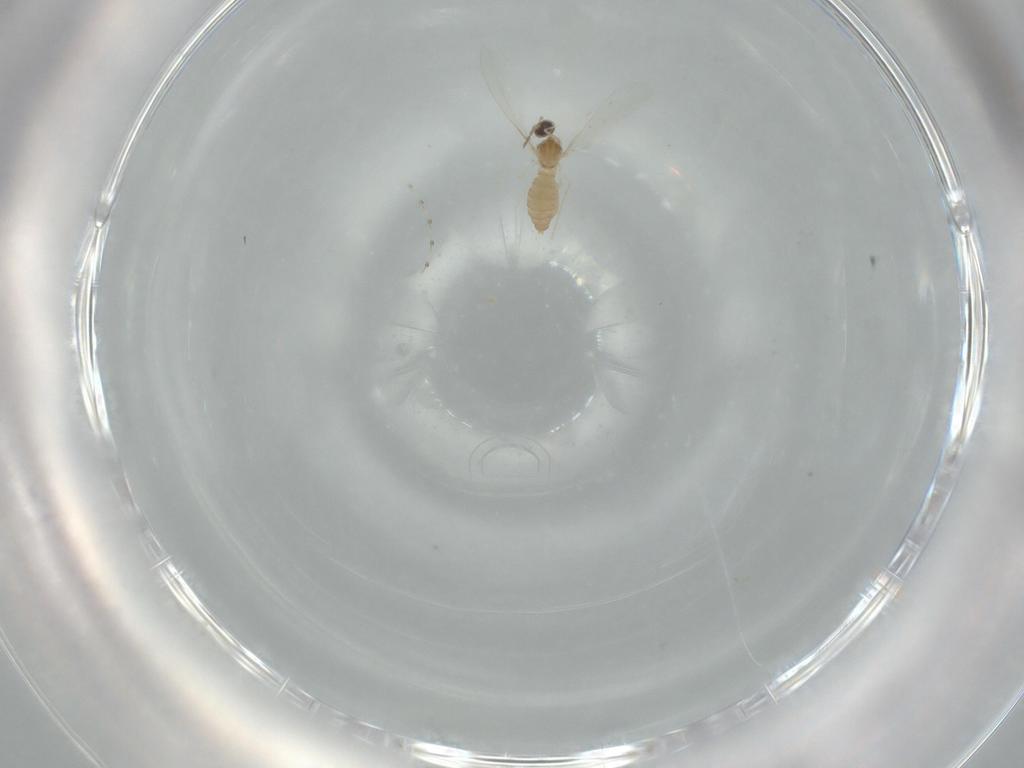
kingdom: Animalia
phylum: Arthropoda
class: Insecta
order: Diptera
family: Cecidomyiidae
